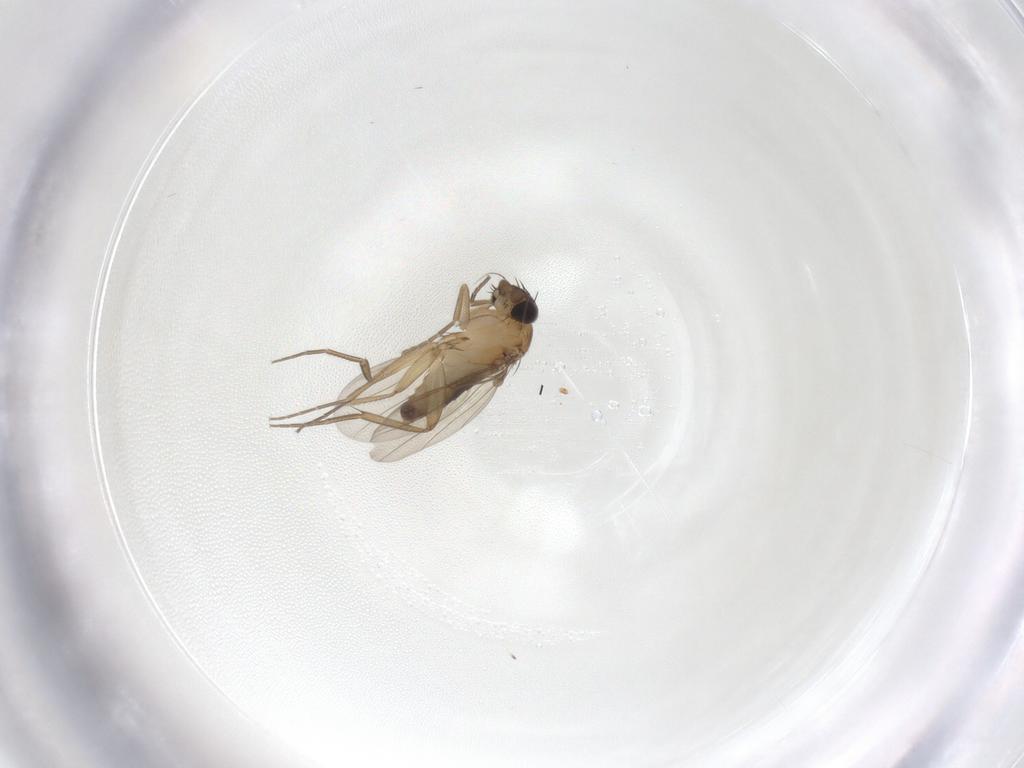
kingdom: Animalia
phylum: Arthropoda
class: Insecta
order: Diptera
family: Phoridae
